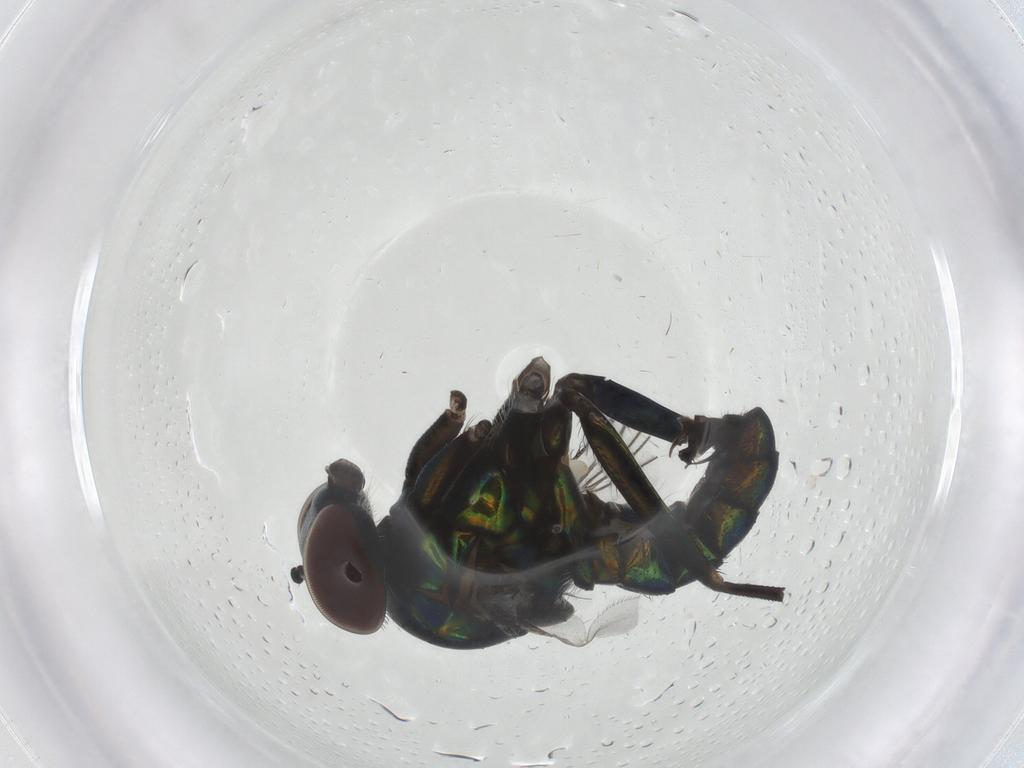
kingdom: Animalia
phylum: Arthropoda
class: Insecta
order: Diptera
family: Dolichopodidae
